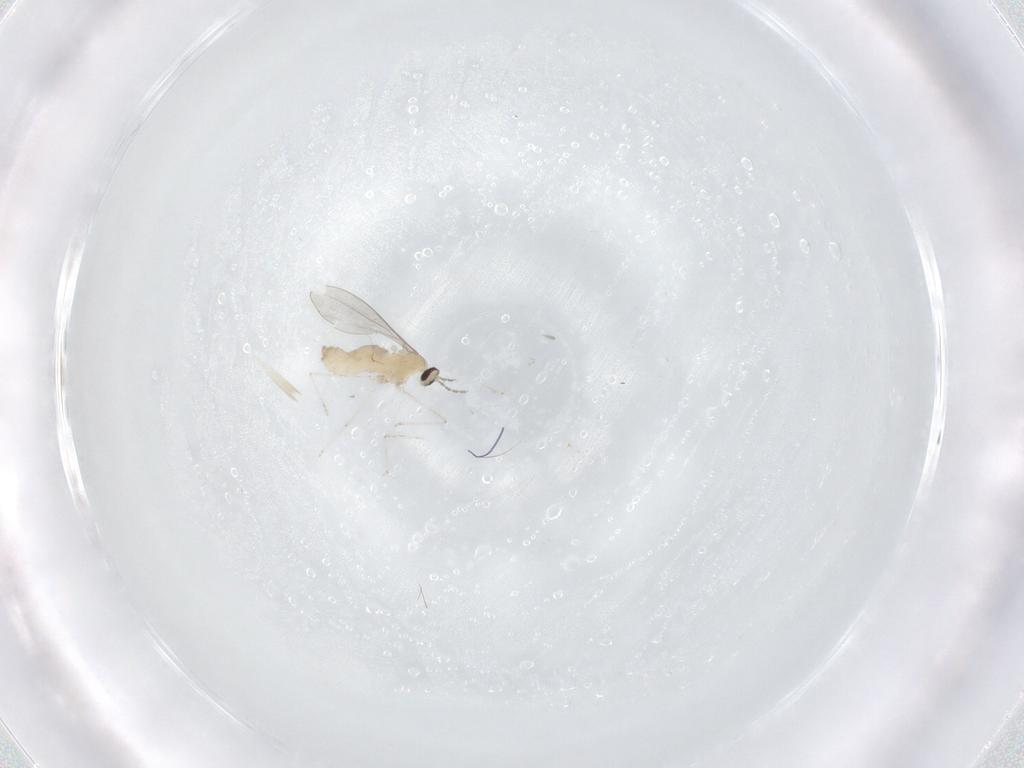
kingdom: Animalia
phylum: Arthropoda
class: Insecta
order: Diptera
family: Cecidomyiidae
